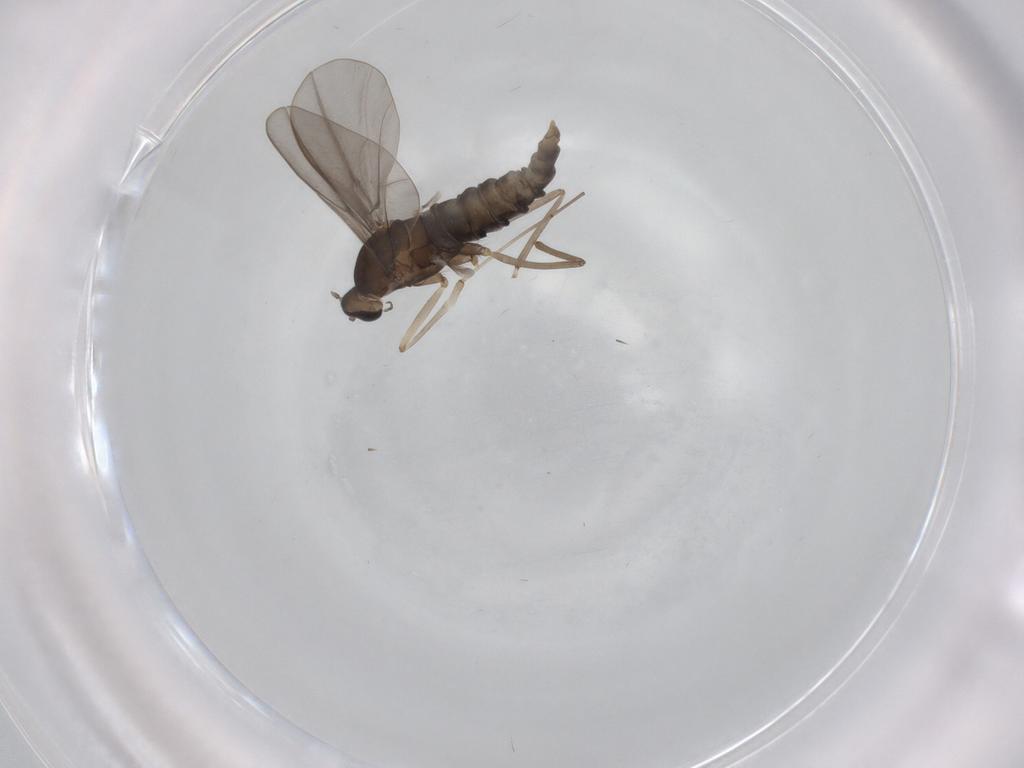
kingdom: Animalia
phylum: Arthropoda
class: Insecta
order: Diptera
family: Cecidomyiidae
